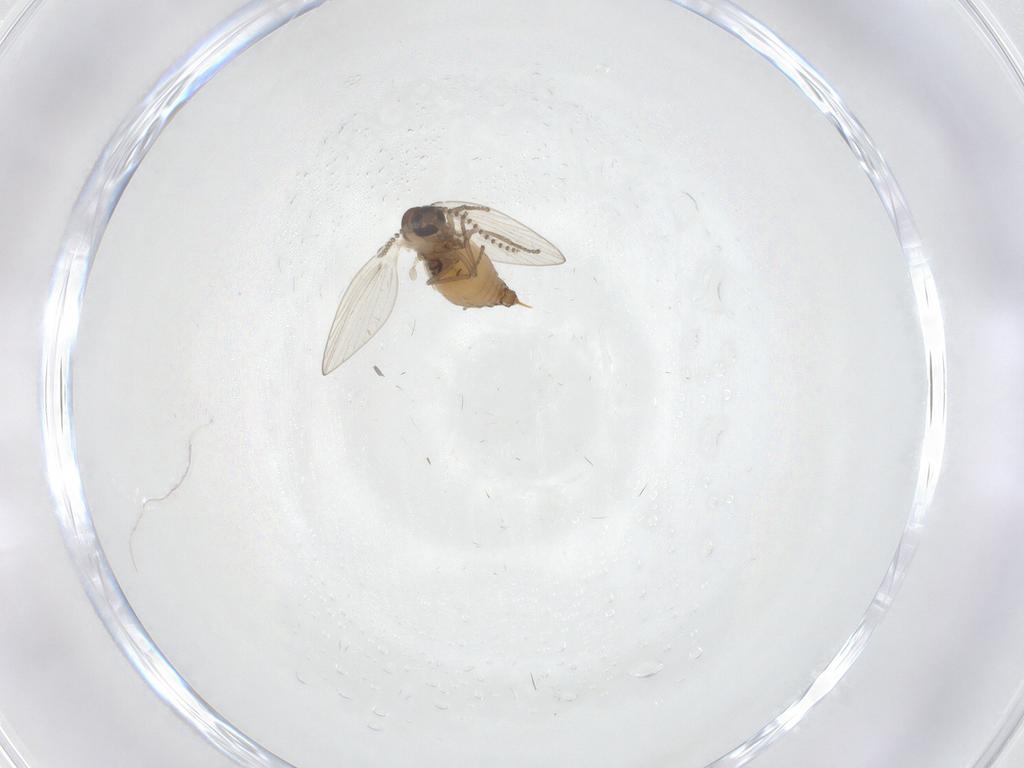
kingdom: Animalia
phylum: Arthropoda
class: Insecta
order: Diptera
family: Psychodidae
